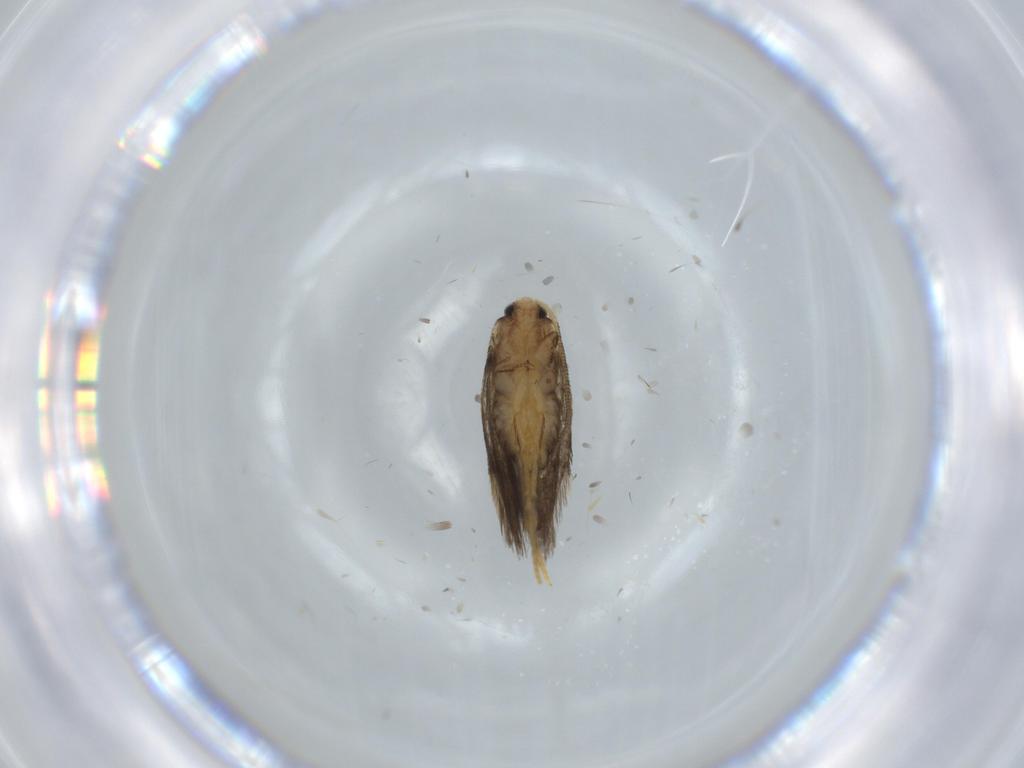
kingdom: Animalia
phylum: Arthropoda
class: Insecta
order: Lepidoptera
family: Nepticulidae
